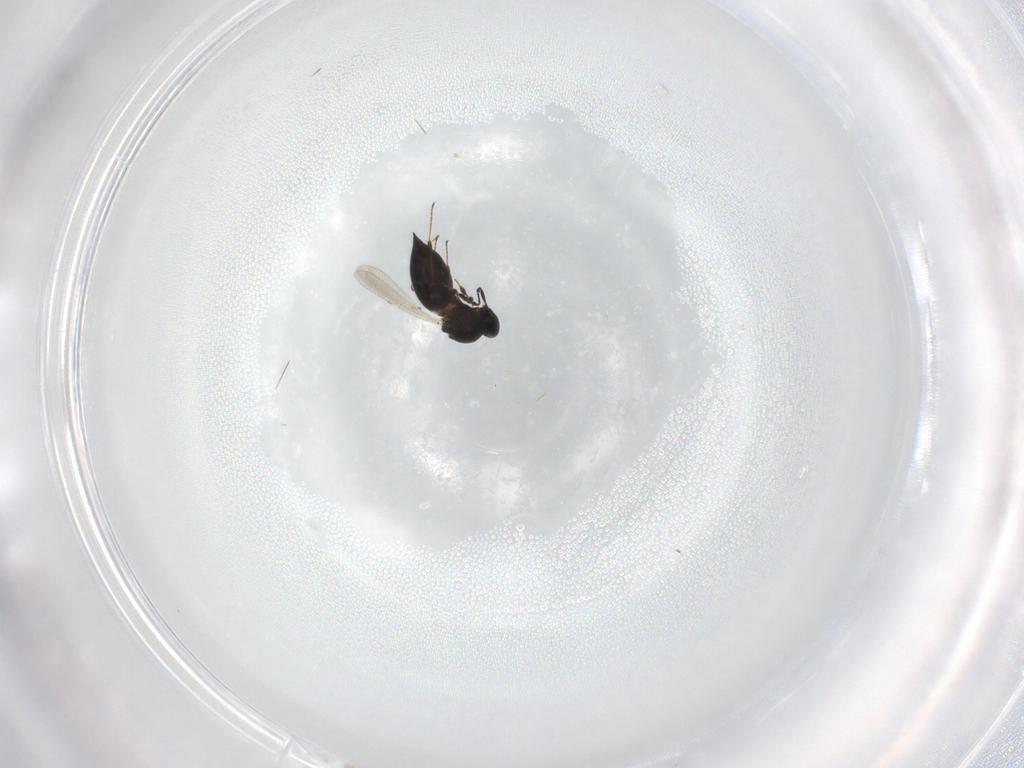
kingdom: Animalia
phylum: Arthropoda
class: Insecta
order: Hymenoptera
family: Platygastridae
